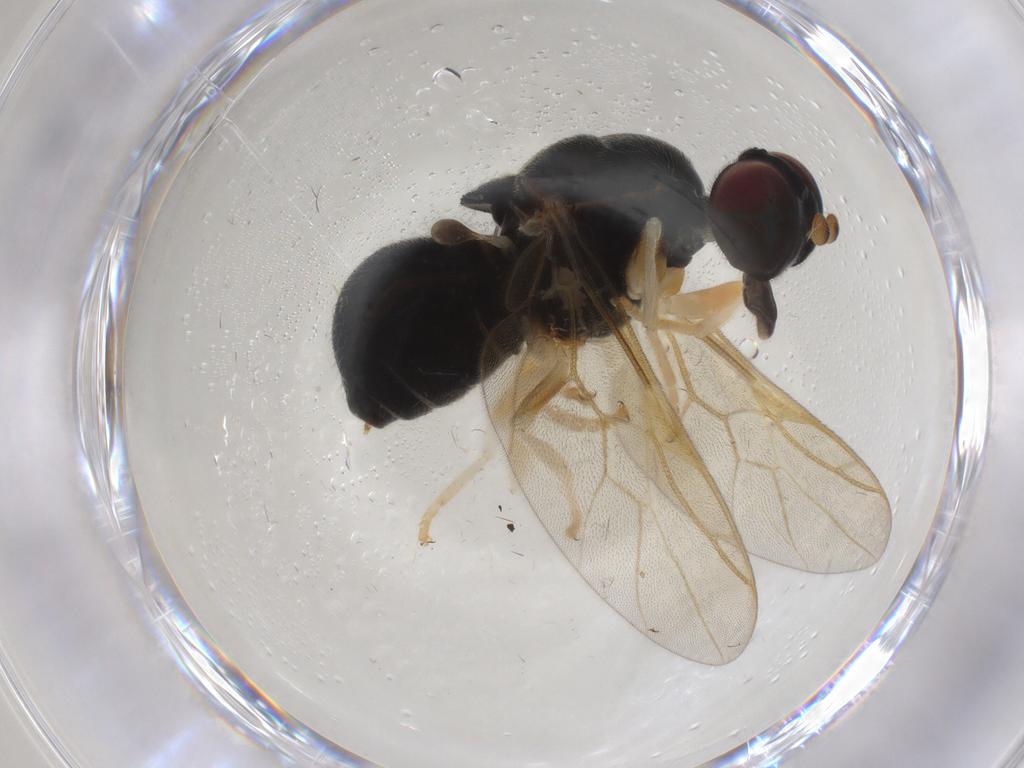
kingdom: Animalia
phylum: Arthropoda
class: Insecta
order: Diptera
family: Stratiomyidae
